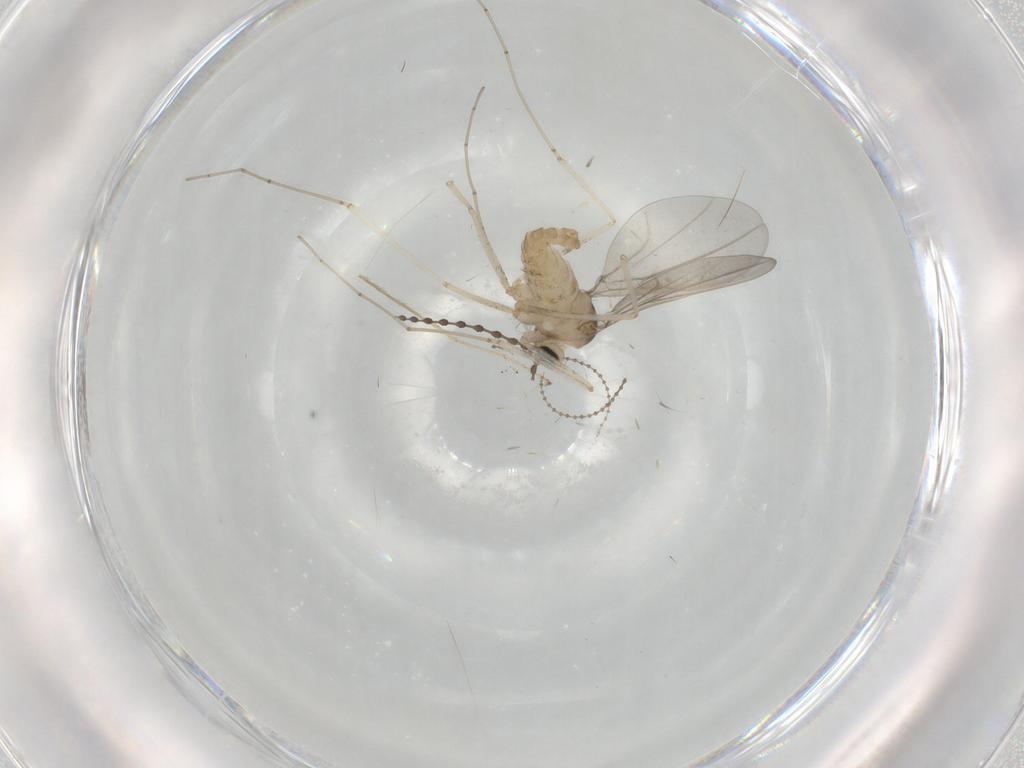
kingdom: Animalia
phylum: Arthropoda
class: Insecta
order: Diptera
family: Cecidomyiidae
